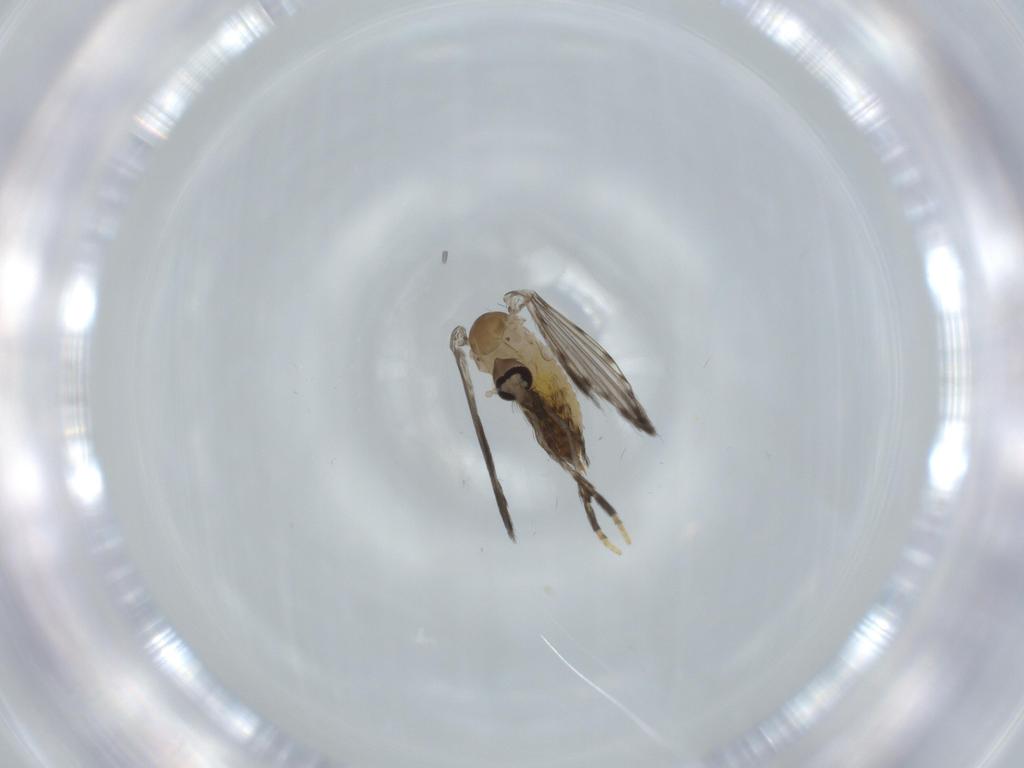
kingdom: Animalia
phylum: Arthropoda
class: Insecta
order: Diptera
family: Psychodidae
